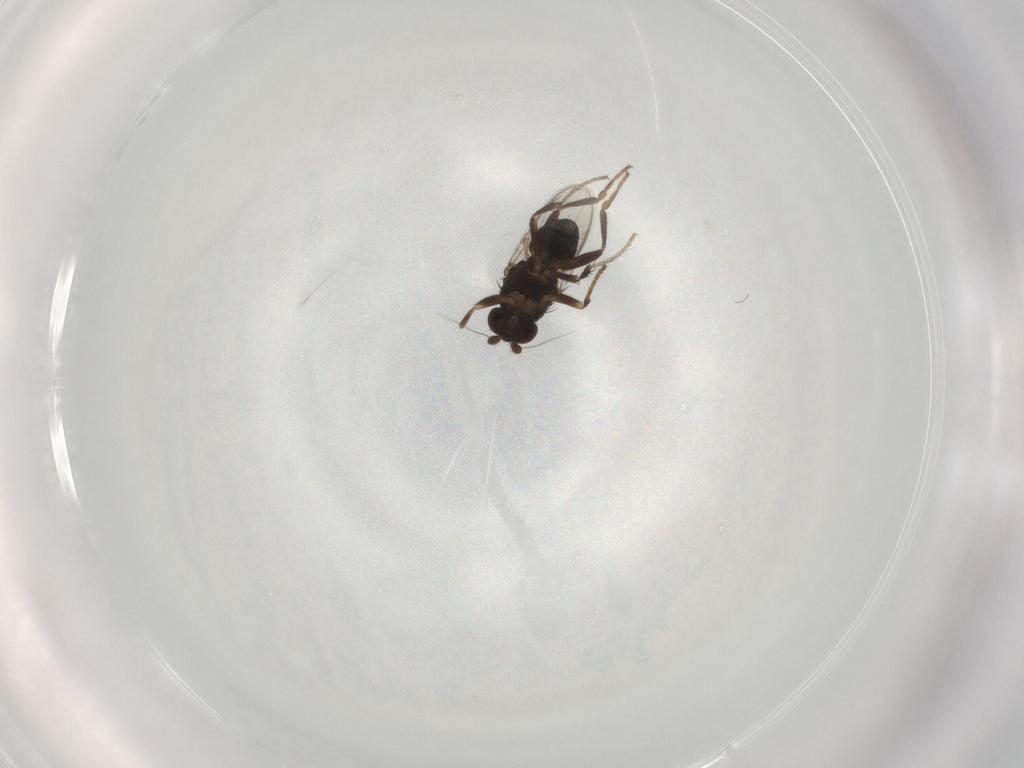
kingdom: Animalia
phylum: Arthropoda
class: Insecta
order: Diptera
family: Sphaeroceridae
